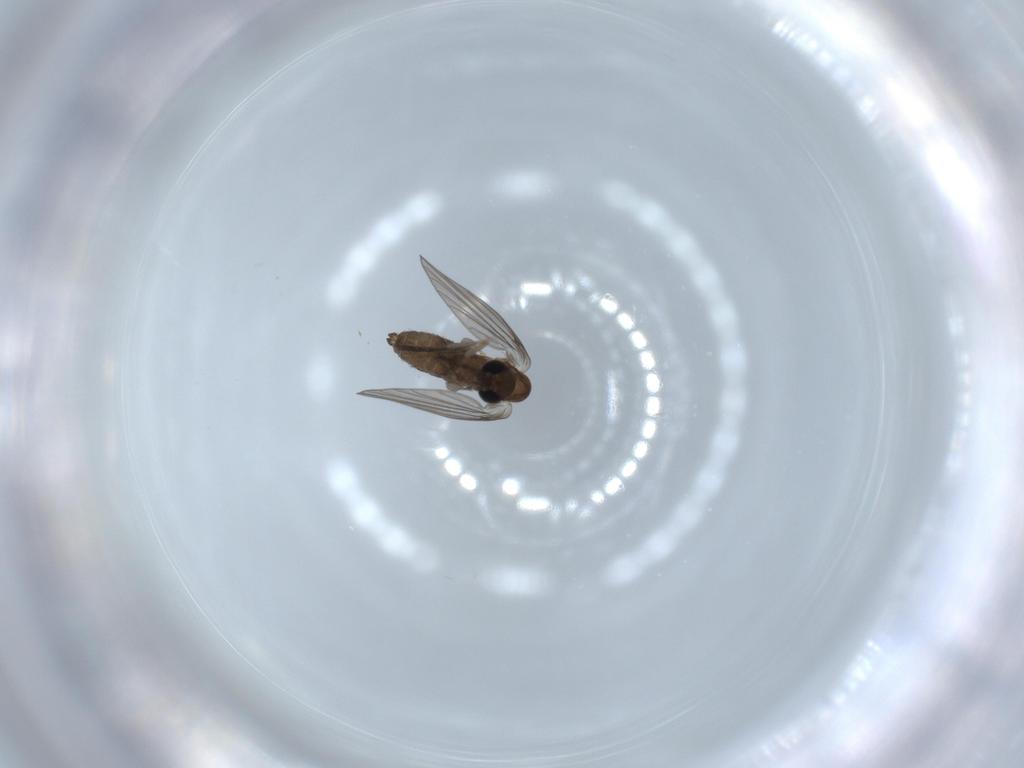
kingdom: Animalia
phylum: Arthropoda
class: Insecta
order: Diptera
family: Psychodidae
